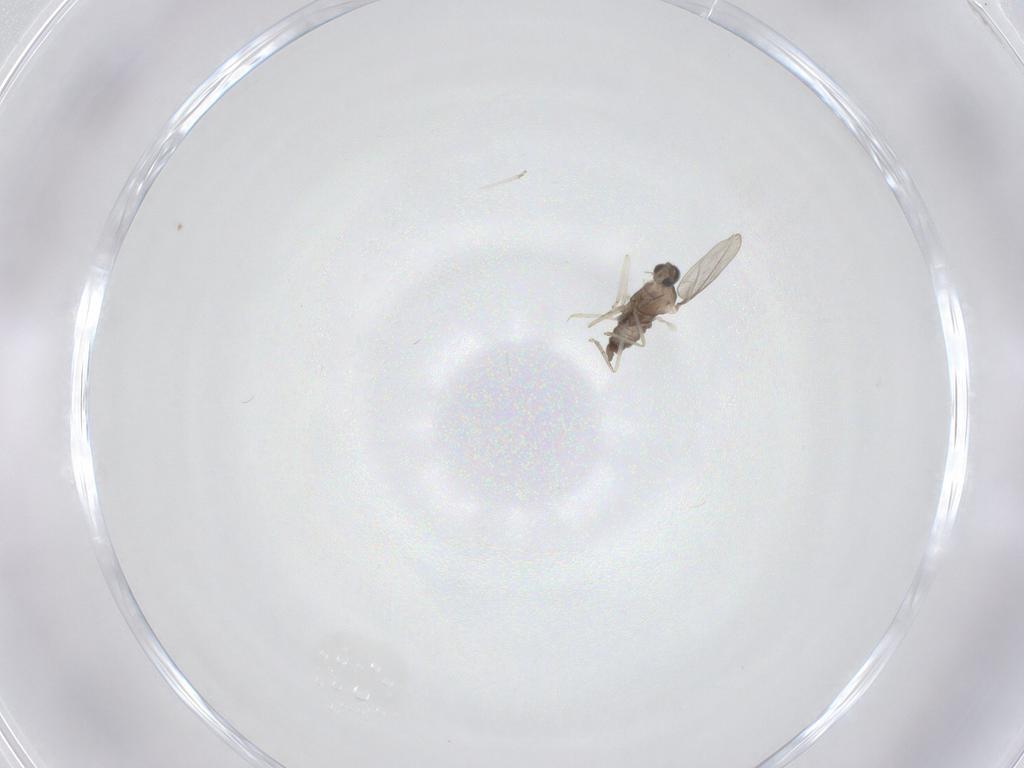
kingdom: Animalia
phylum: Arthropoda
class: Insecta
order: Diptera
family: Cecidomyiidae
